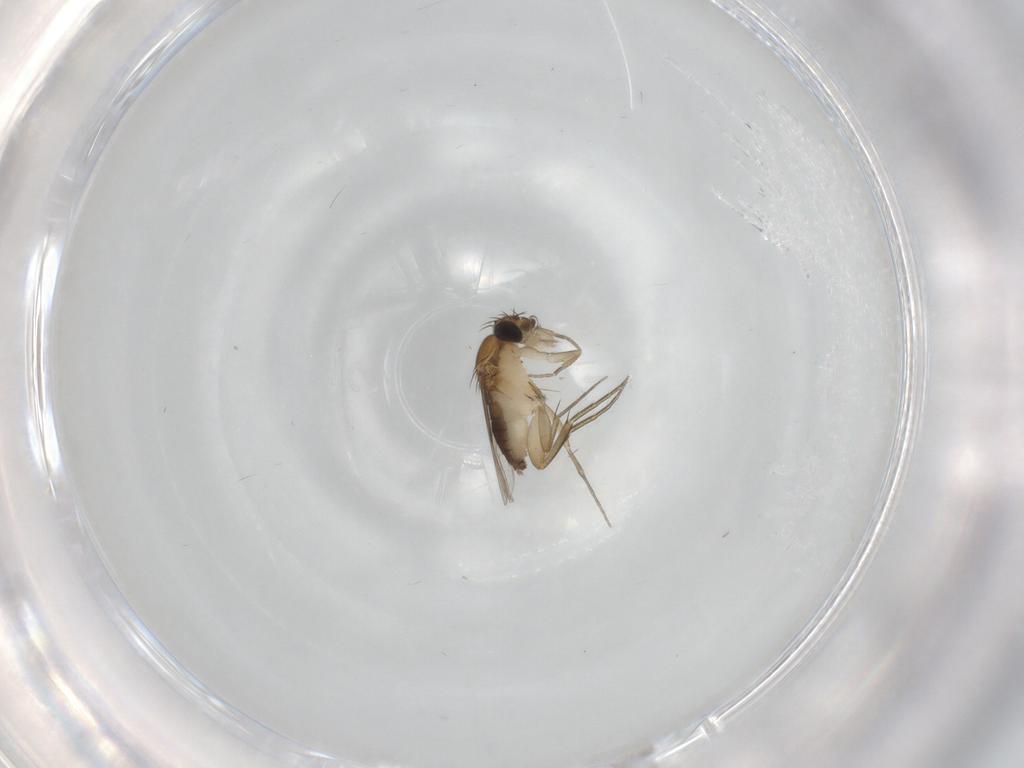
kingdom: Animalia
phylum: Arthropoda
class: Insecta
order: Diptera
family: Phoridae
